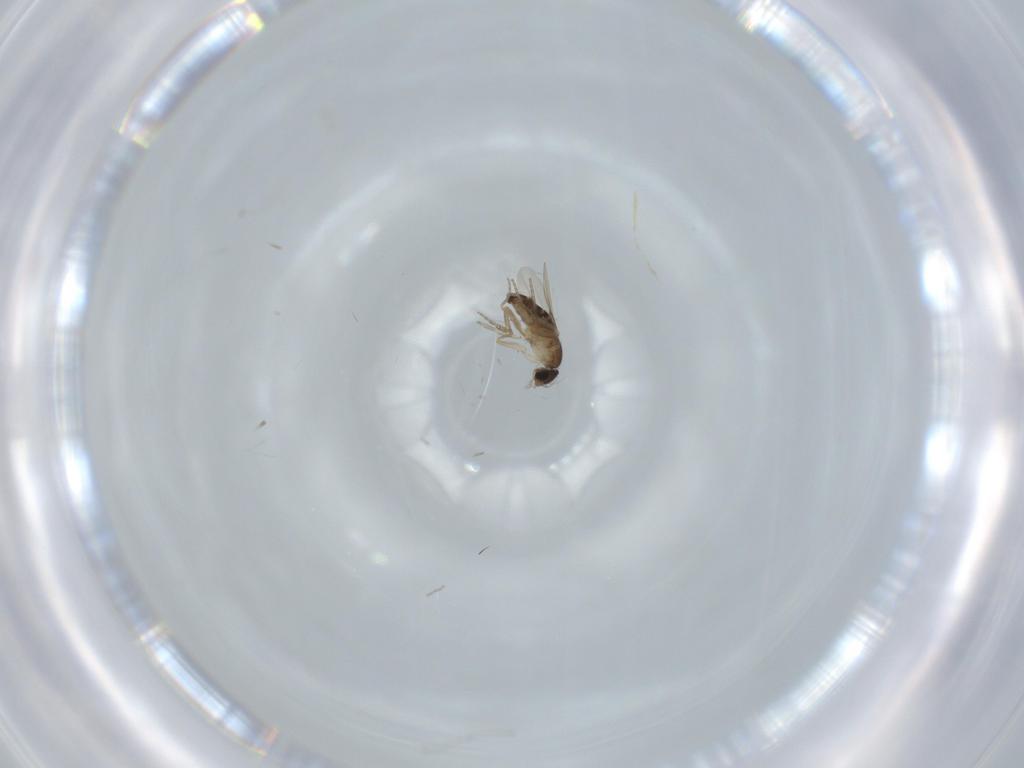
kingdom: Animalia
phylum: Arthropoda
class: Insecta
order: Diptera
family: Phoridae
